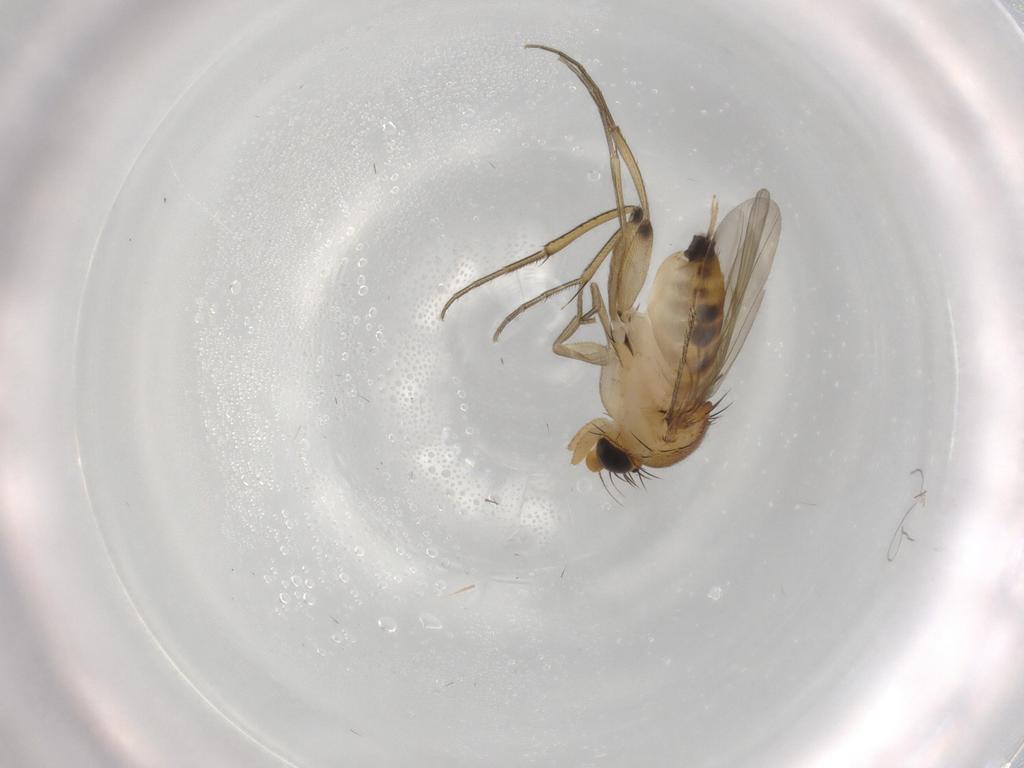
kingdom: Animalia
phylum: Arthropoda
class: Insecta
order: Diptera
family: Phoridae
